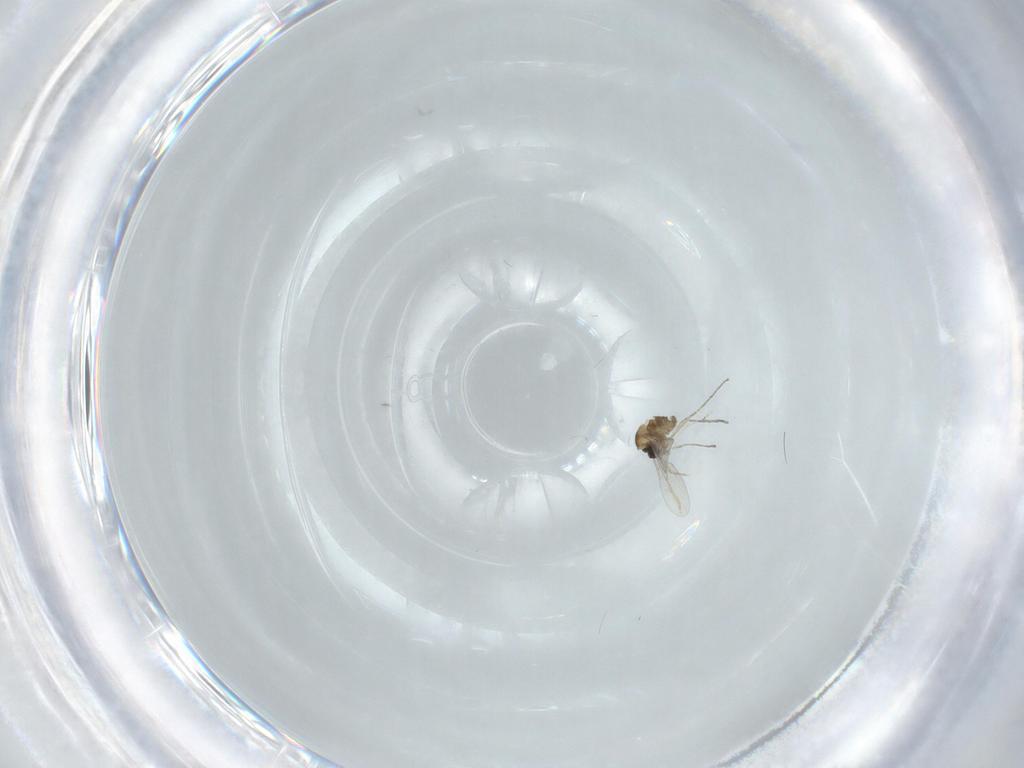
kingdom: Animalia
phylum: Arthropoda
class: Insecta
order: Diptera
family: Cecidomyiidae
